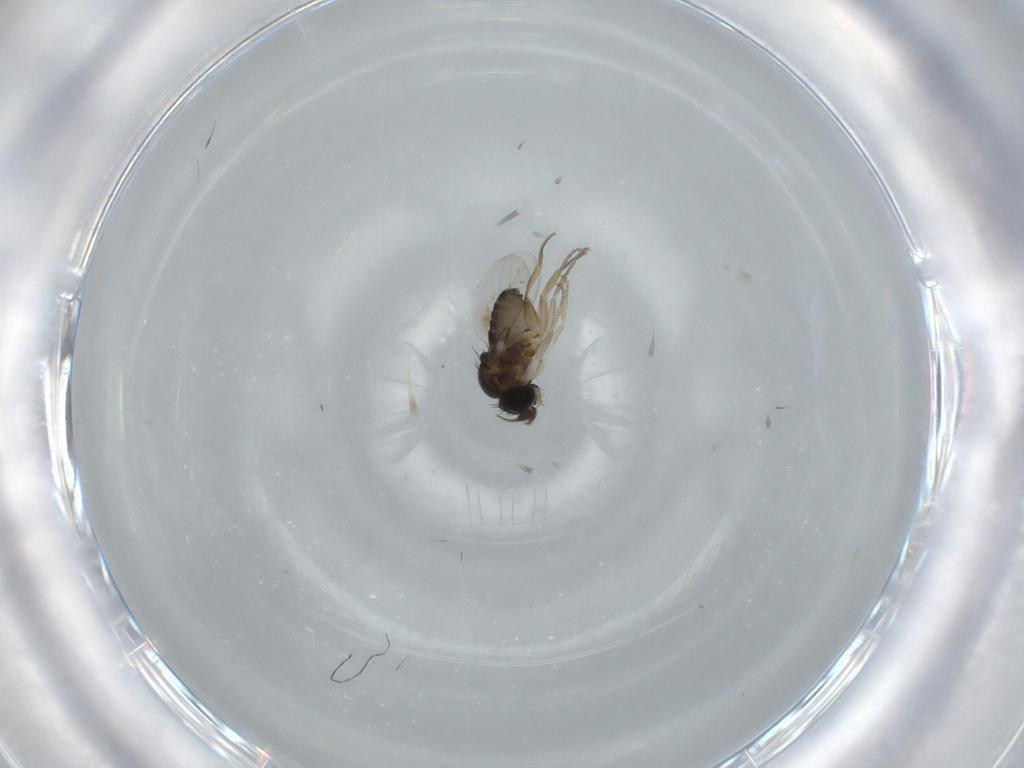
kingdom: Animalia
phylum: Arthropoda
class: Insecta
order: Diptera
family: Phoridae
